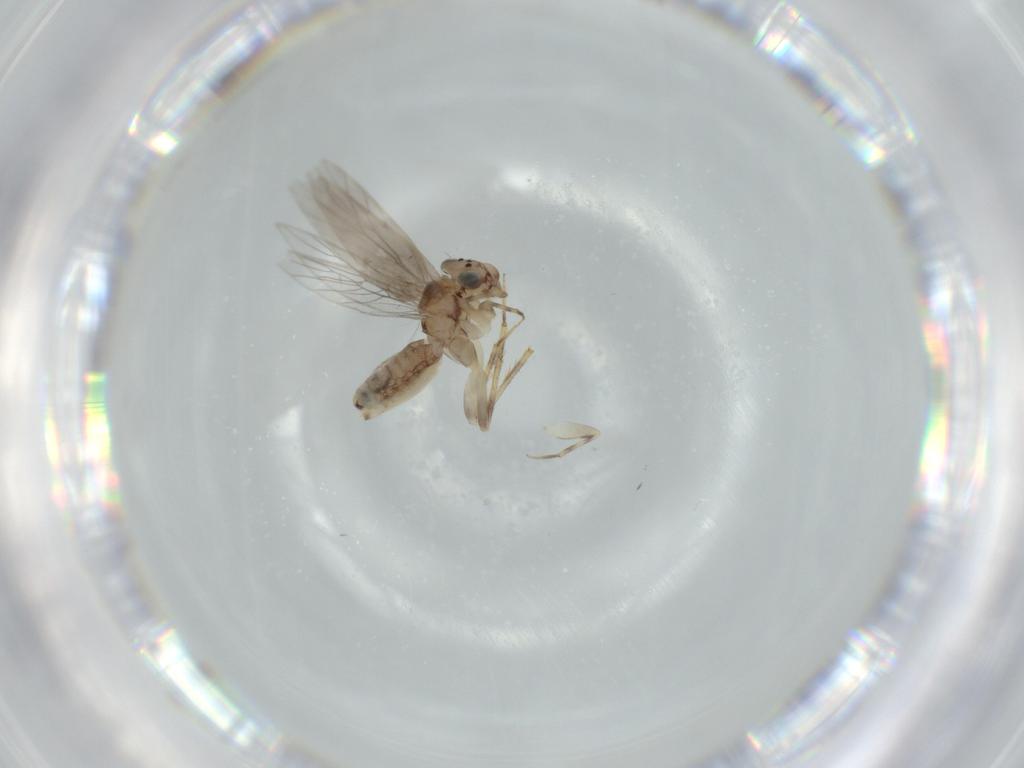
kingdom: Animalia
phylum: Arthropoda
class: Insecta
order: Psocodea
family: Lepidopsocidae
